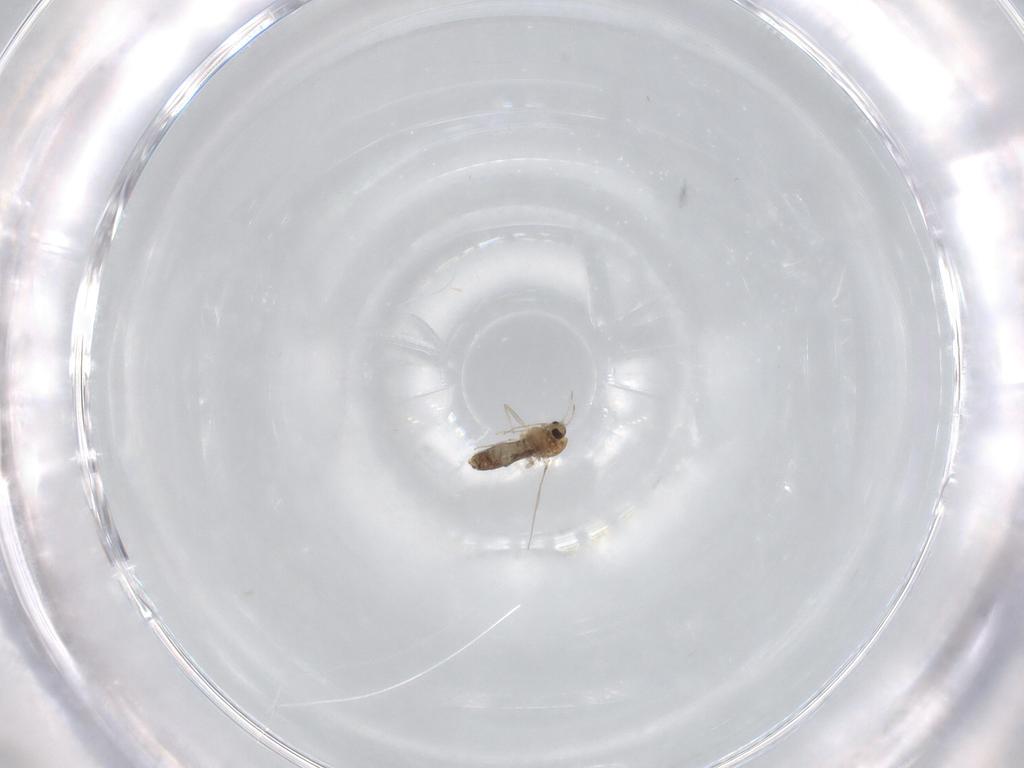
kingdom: Animalia
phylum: Arthropoda
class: Insecta
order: Diptera
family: Chironomidae
